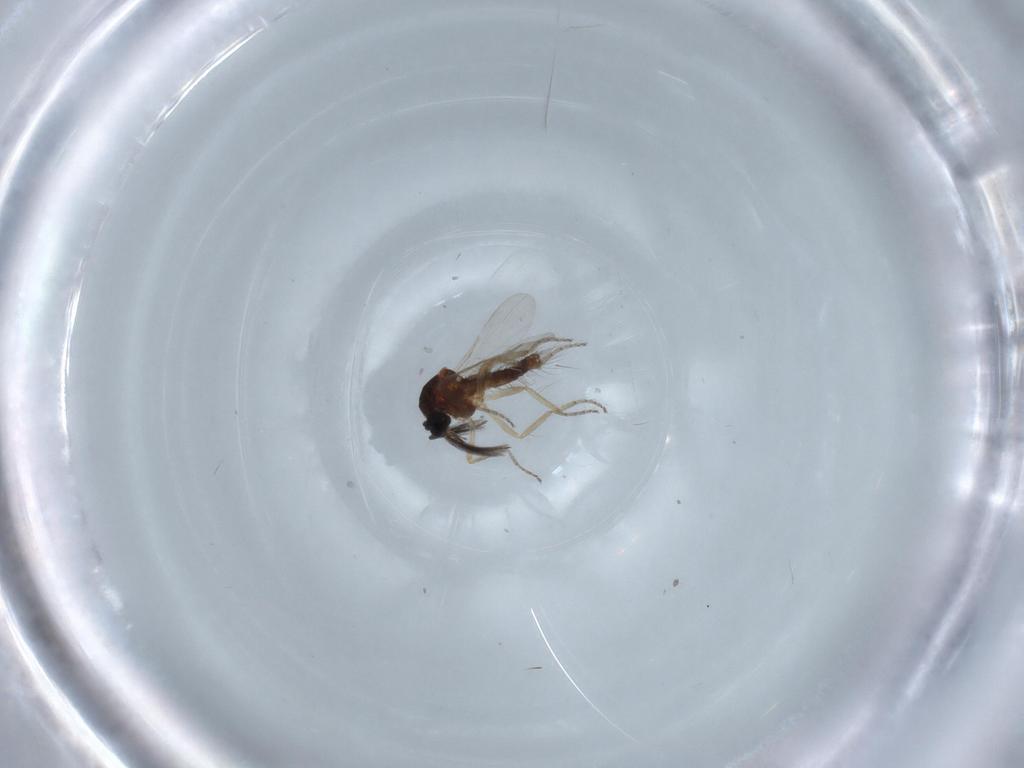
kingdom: Animalia
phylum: Arthropoda
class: Insecta
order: Diptera
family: Ceratopogonidae
